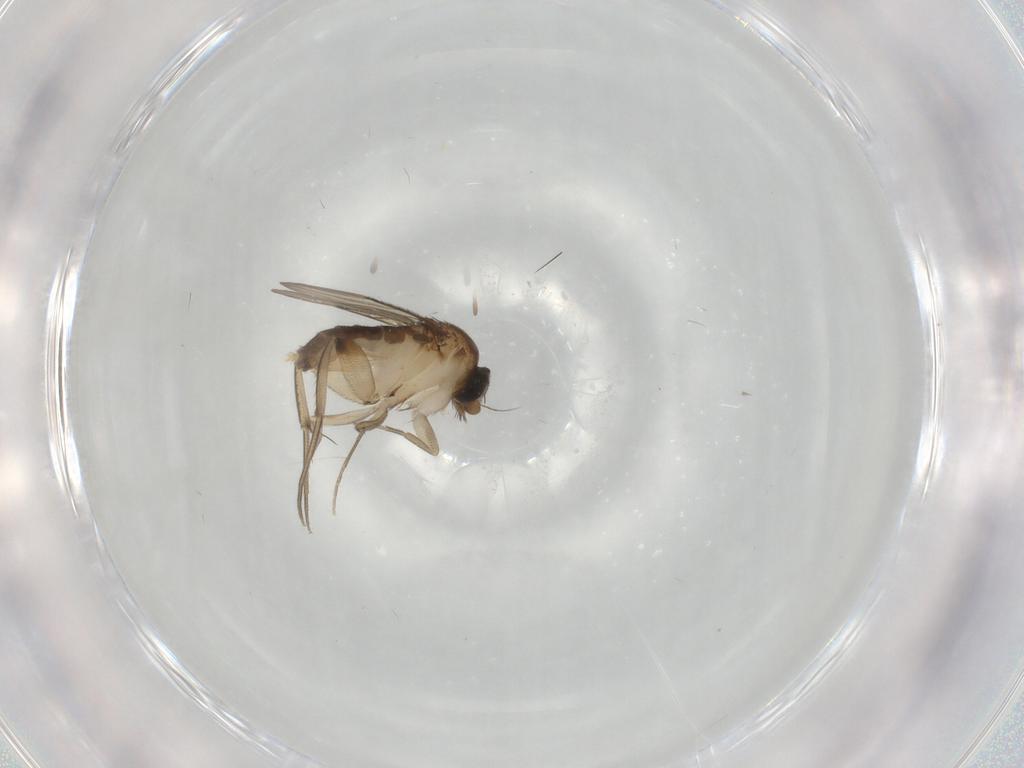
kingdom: Animalia
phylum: Arthropoda
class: Insecta
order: Diptera
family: Phoridae
